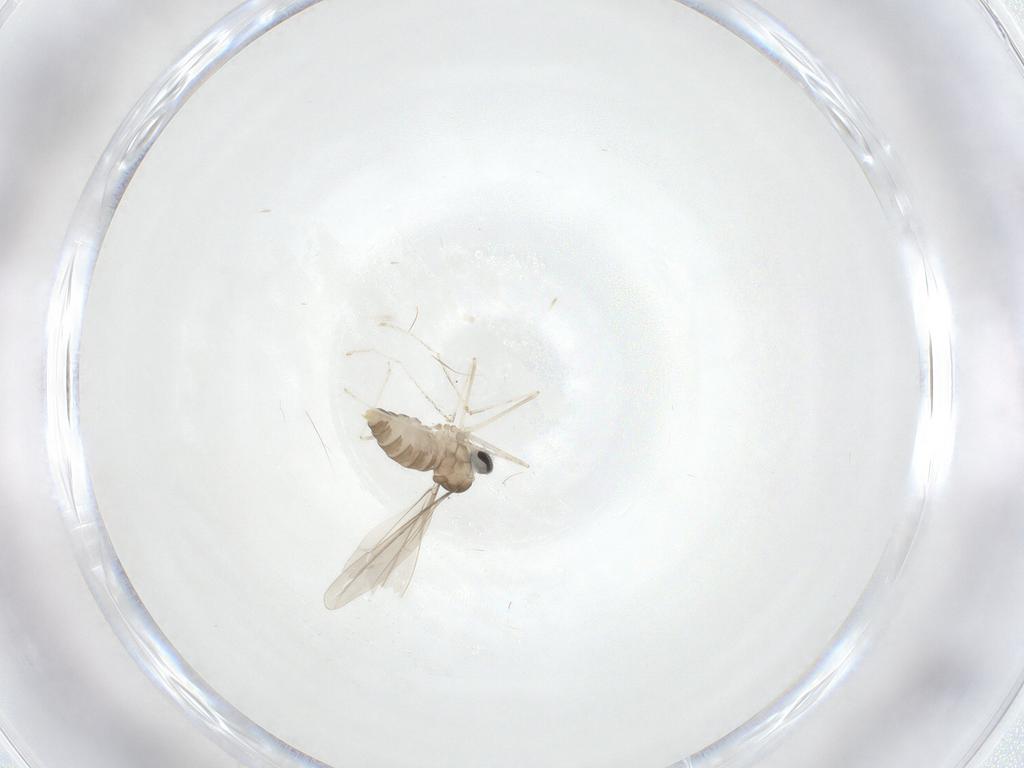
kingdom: Animalia
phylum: Arthropoda
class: Insecta
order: Diptera
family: Cecidomyiidae
